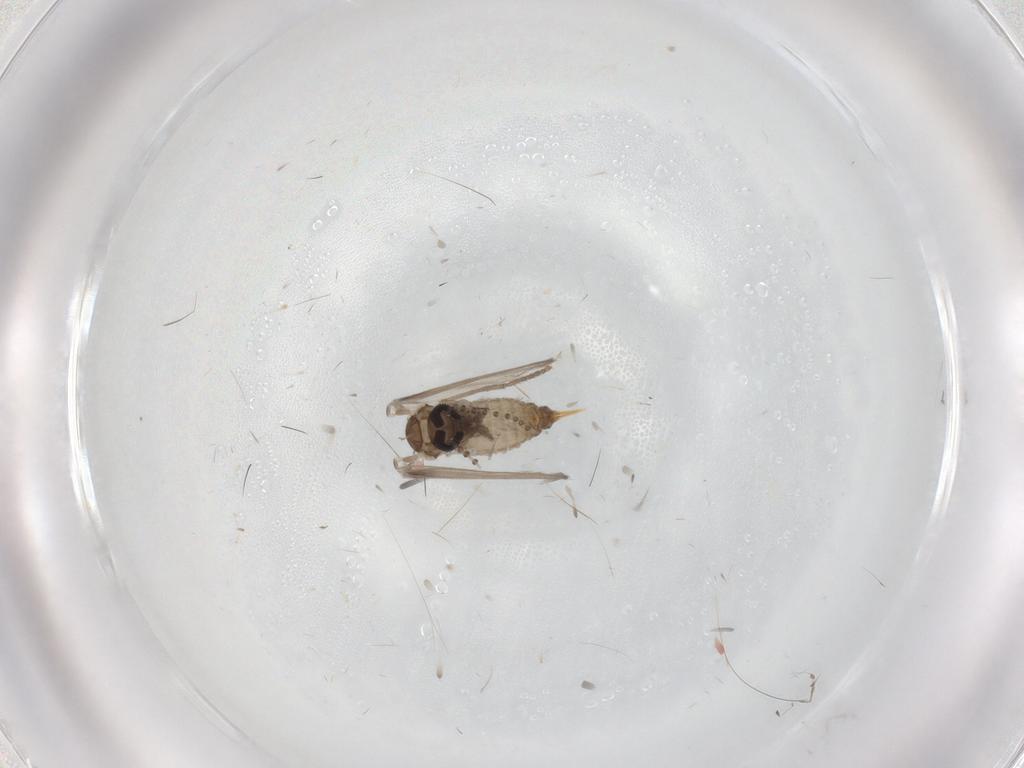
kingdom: Animalia
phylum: Arthropoda
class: Insecta
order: Diptera
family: Psychodidae
